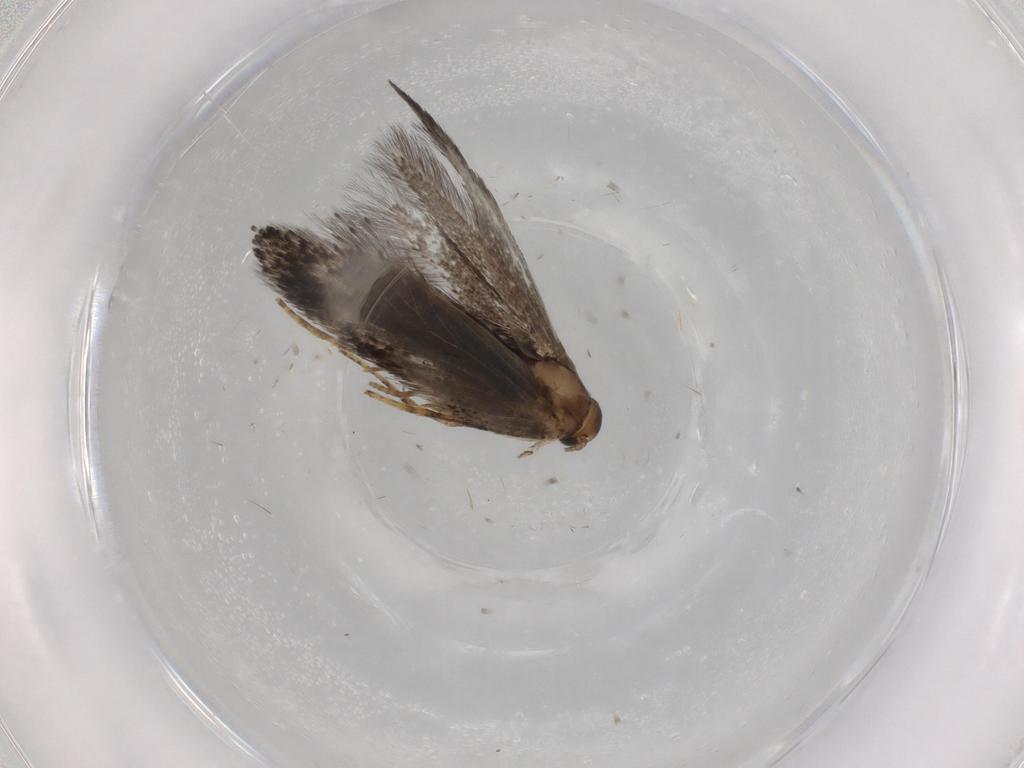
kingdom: Animalia
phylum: Arthropoda
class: Insecta
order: Lepidoptera
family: Pieridae
